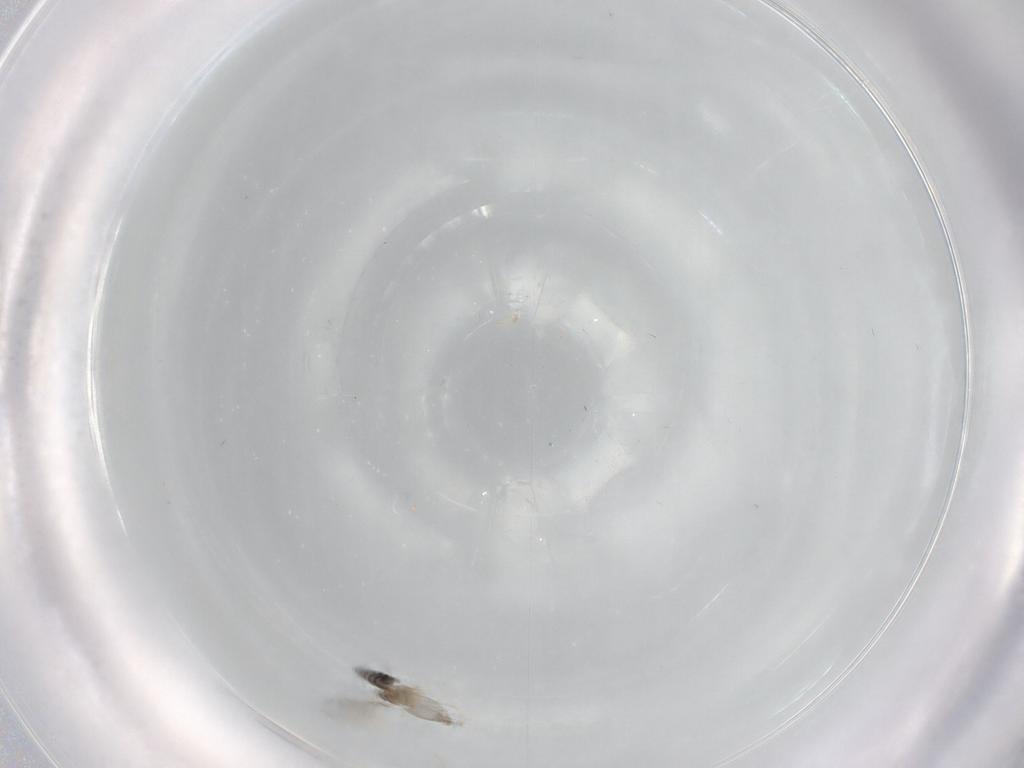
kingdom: Animalia
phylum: Arthropoda
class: Insecta
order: Diptera
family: Cecidomyiidae
